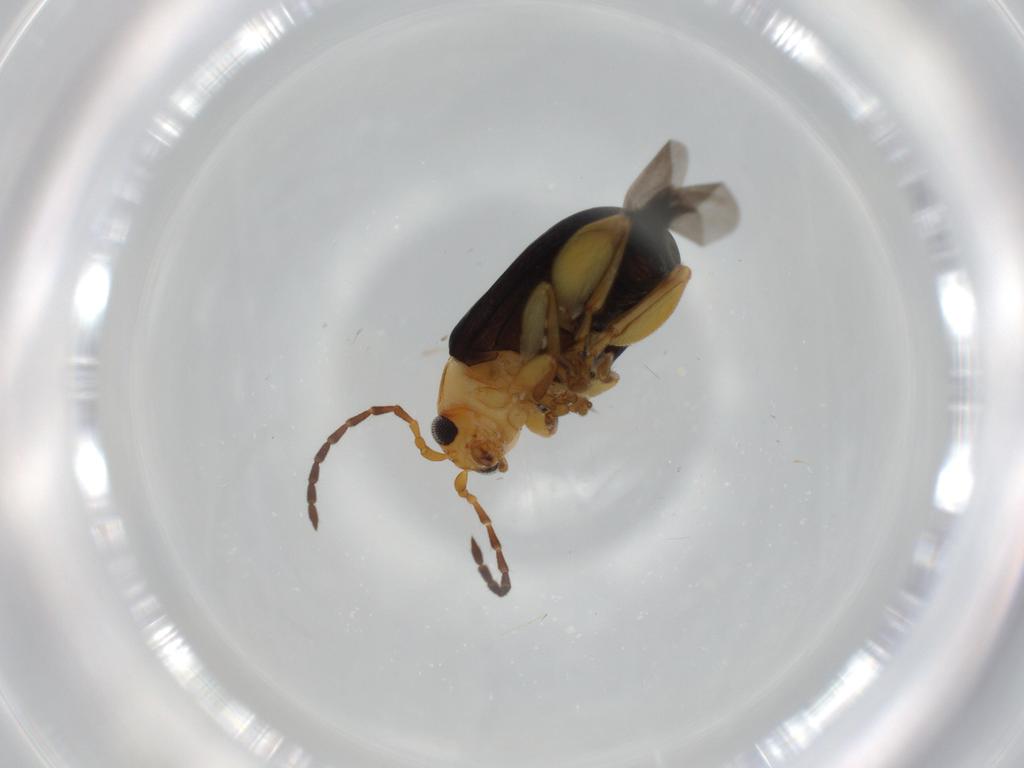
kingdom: Animalia
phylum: Arthropoda
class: Insecta
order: Coleoptera
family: Chrysomelidae
